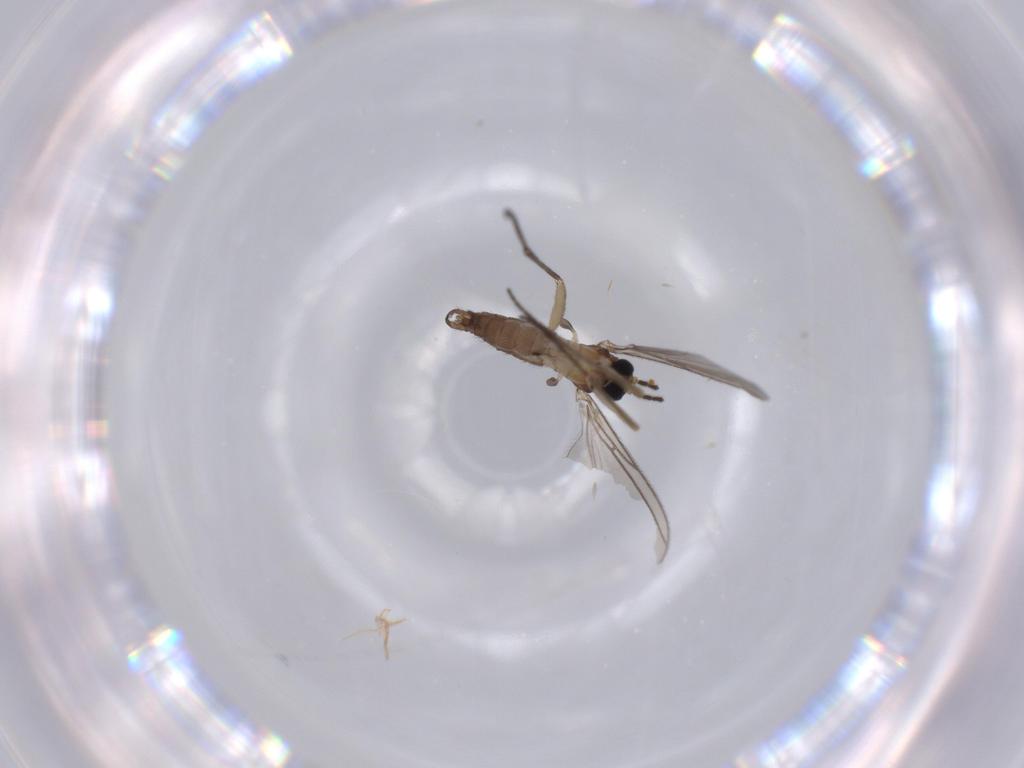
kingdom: Animalia
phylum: Arthropoda
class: Insecta
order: Diptera
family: Sciaridae
